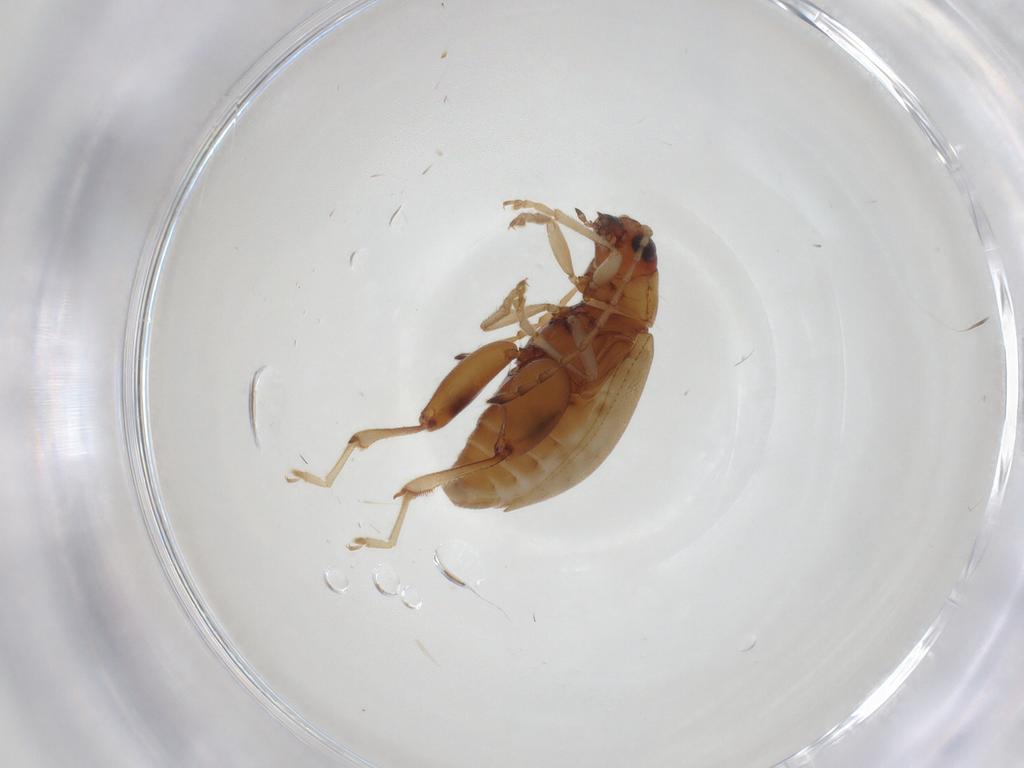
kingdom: Animalia
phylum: Arthropoda
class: Insecta
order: Coleoptera
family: Chrysomelidae
